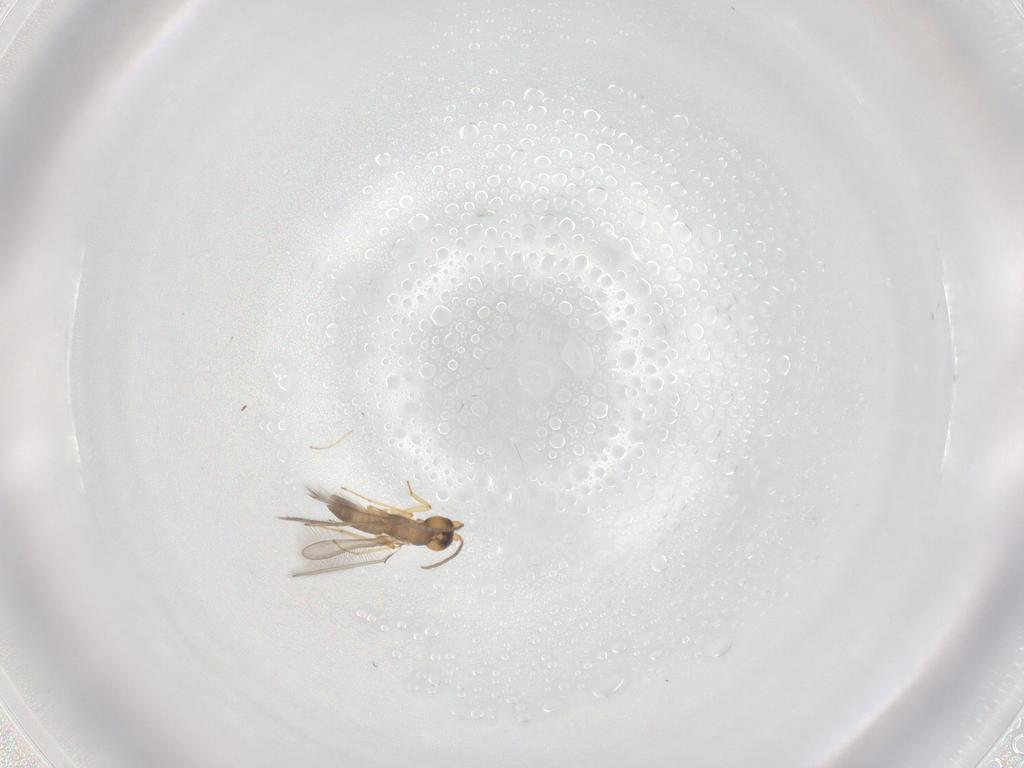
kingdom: Animalia
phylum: Arthropoda
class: Insecta
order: Hymenoptera
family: Mymaridae
